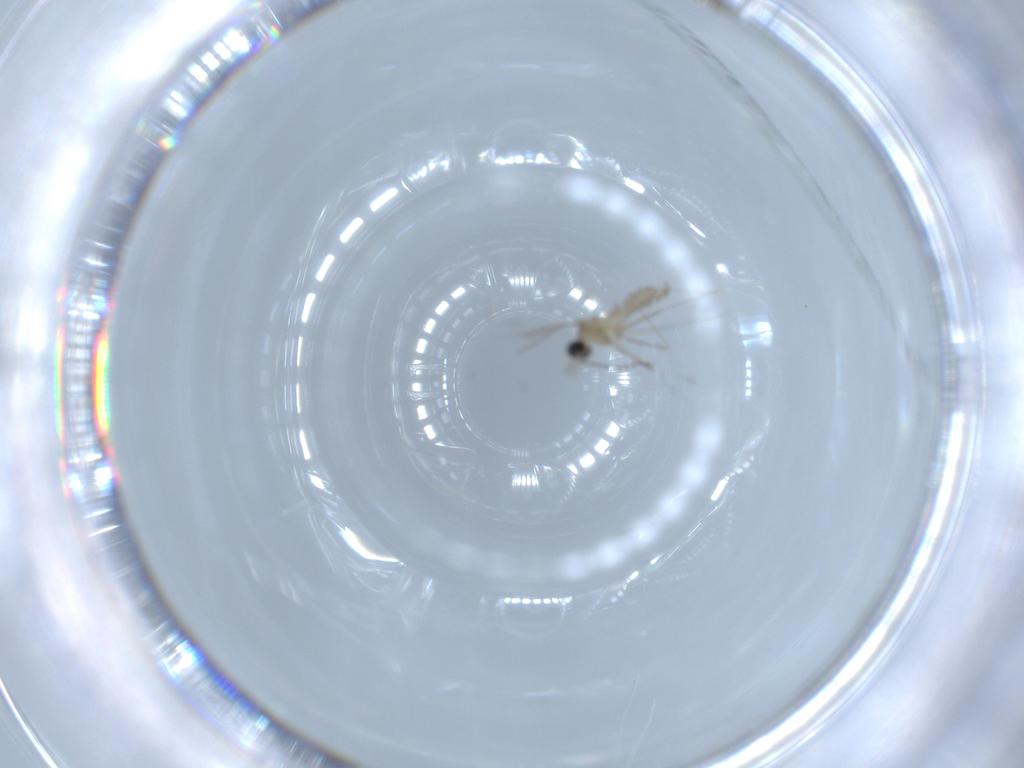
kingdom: Animalia
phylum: Arthropoda
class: Insecta
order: Diptera
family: Cecidomyiidae
